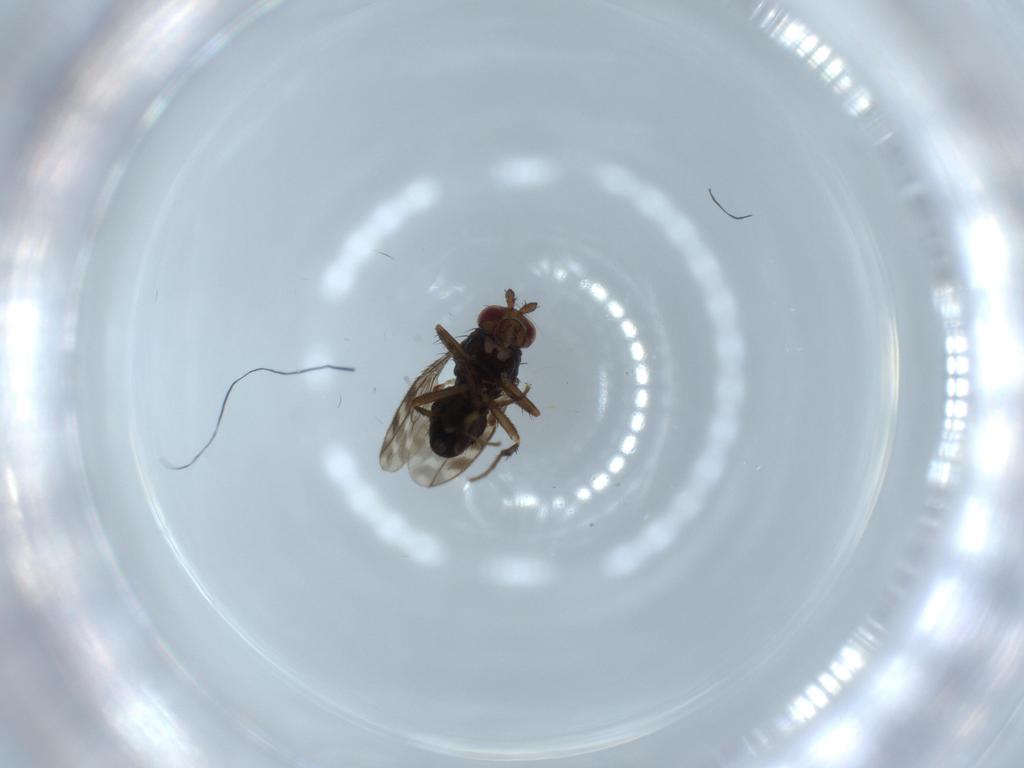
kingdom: Animalia
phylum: Arthropoda
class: Insecta
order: Diptera
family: Sphaeroceridae
